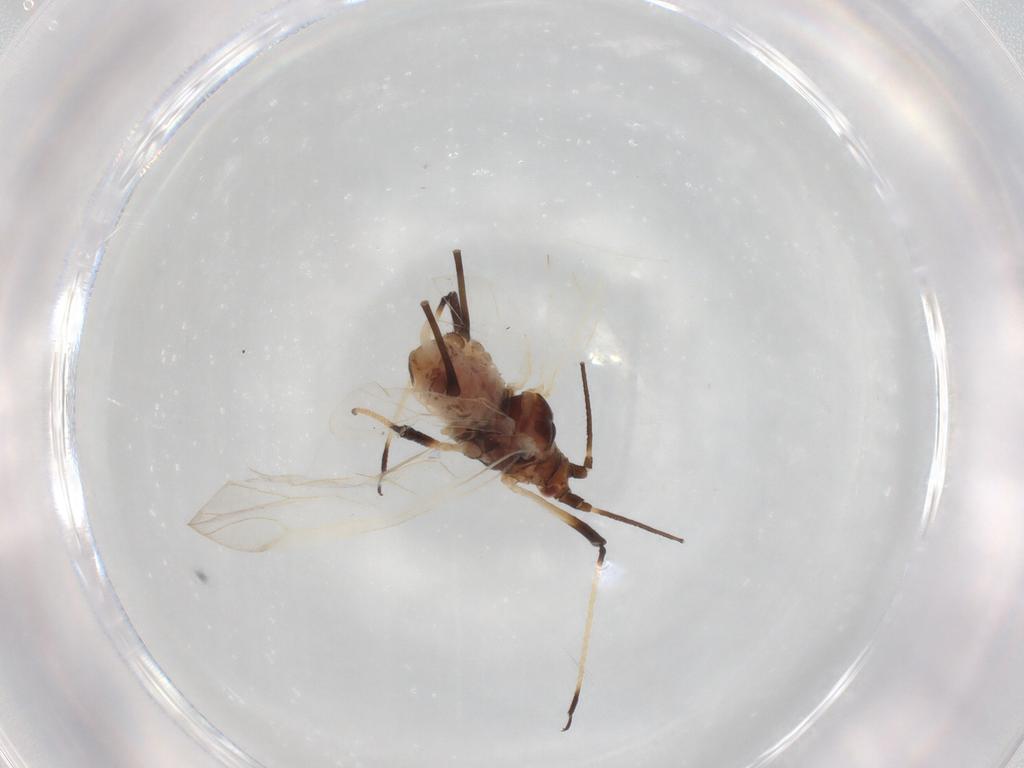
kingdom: Animalia
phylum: Arthropoda
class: Insecta
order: Hemiptera
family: Aphididae
